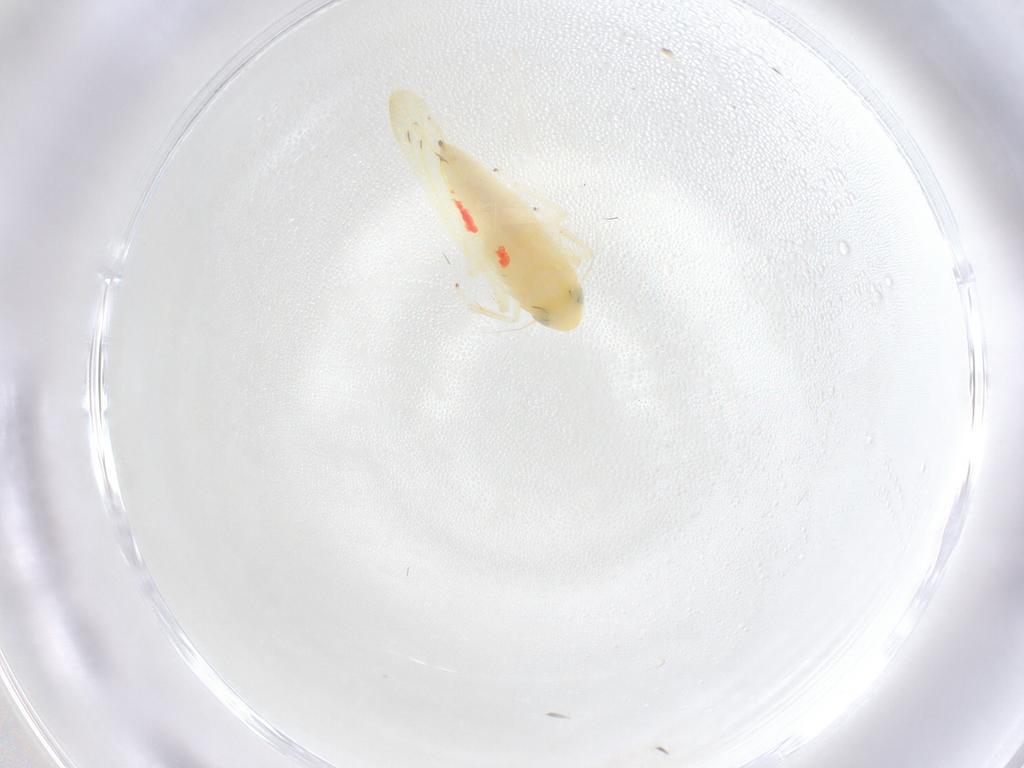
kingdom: Animalia
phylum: Arthropoda
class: Insecta
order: Hemiptera
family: Cicadellidae
